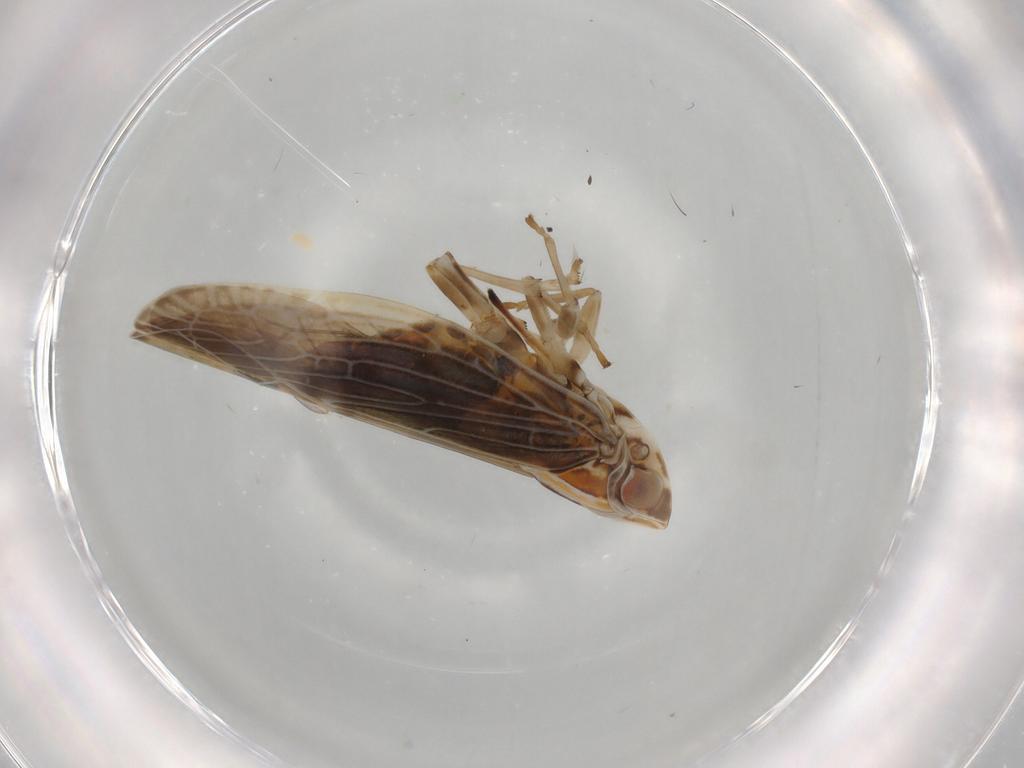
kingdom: Animalia
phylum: Arthropoda
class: Insecta
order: Hemiptera
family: Achilidae
